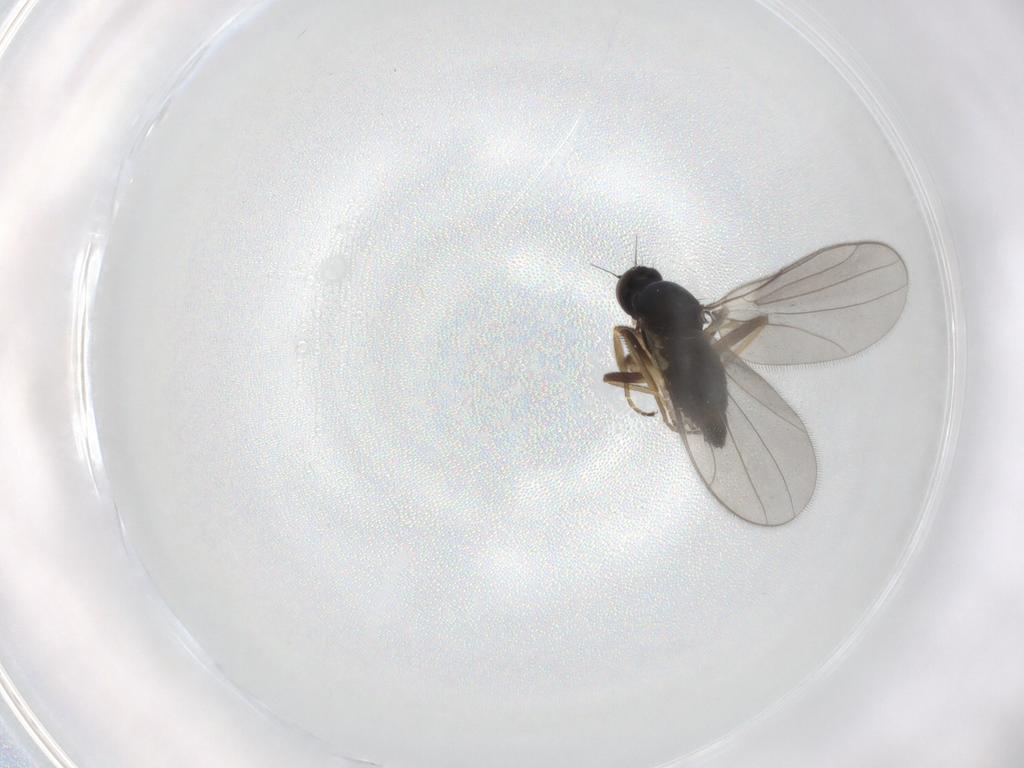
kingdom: Animalia
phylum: Arthropoda
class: Insecta
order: Diptera
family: Hybotidae
